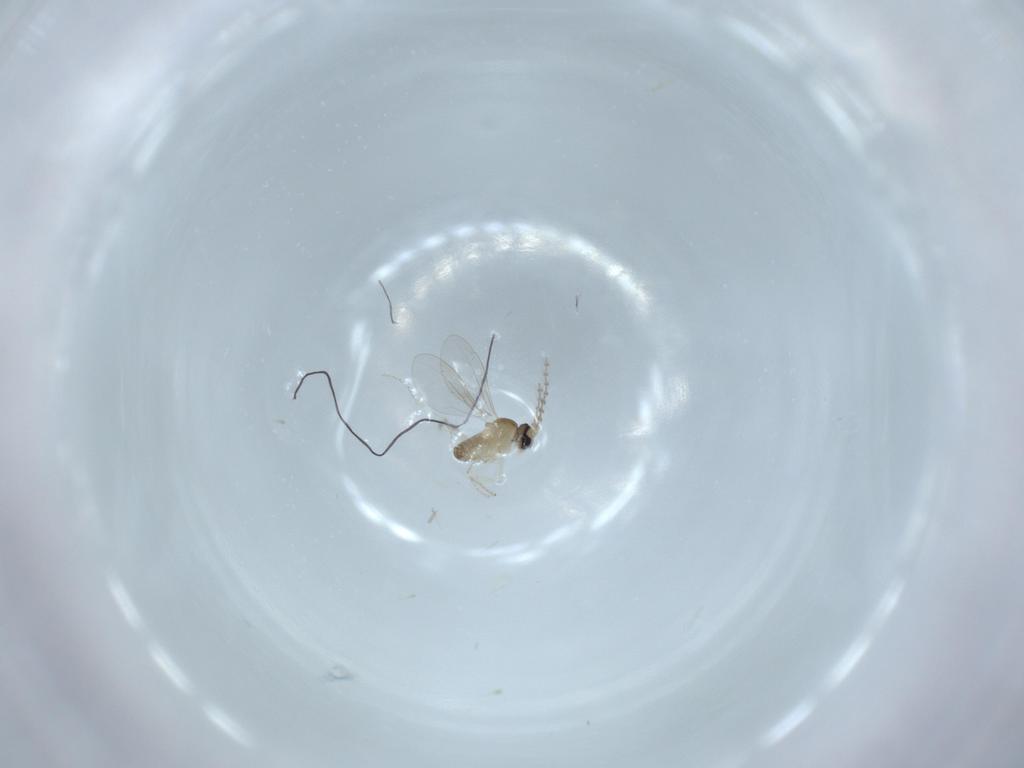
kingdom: Animalia
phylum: Arthropoda
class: Insecta
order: Diptera
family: Cecidomyiidae
